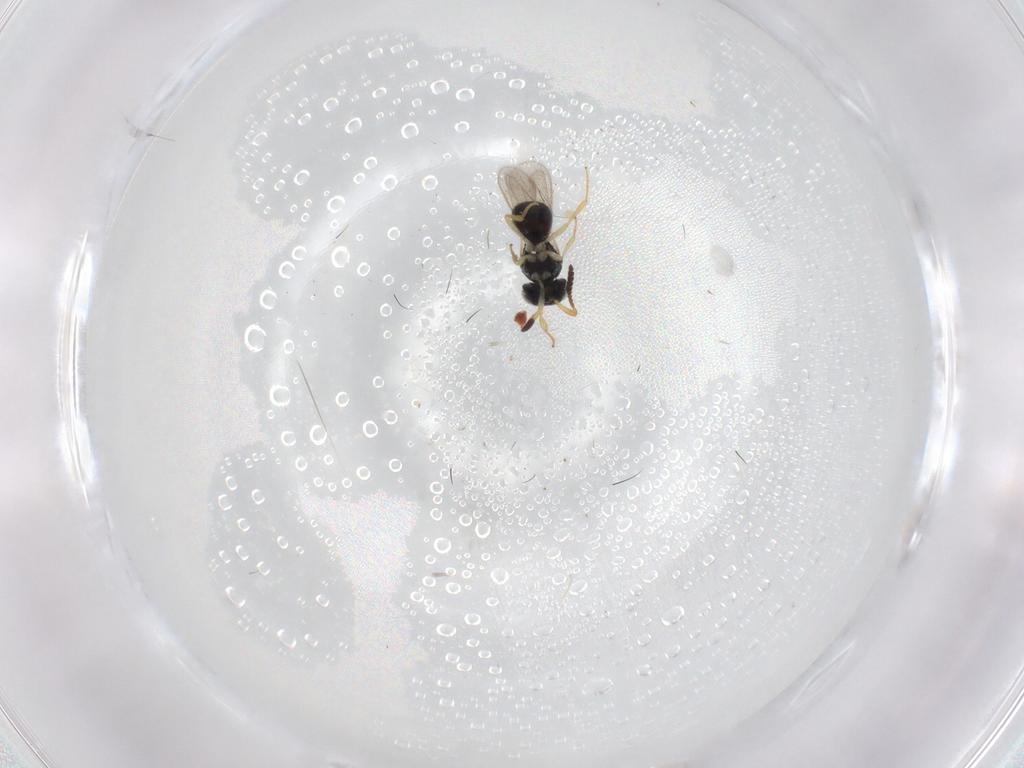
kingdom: Animalia
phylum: Arthropoda
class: Insecta
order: Hymenoptera
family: Scelionidae
